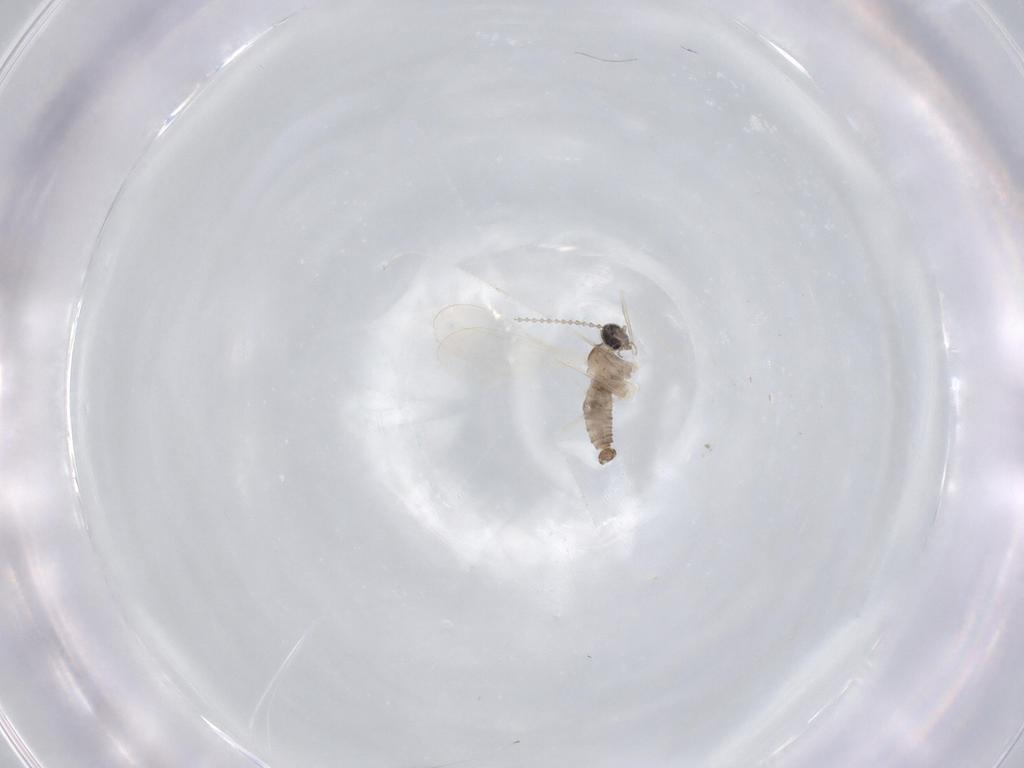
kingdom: Animalia
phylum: Arthropoda
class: Insecta
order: Diptera
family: Cecidomyiidae
